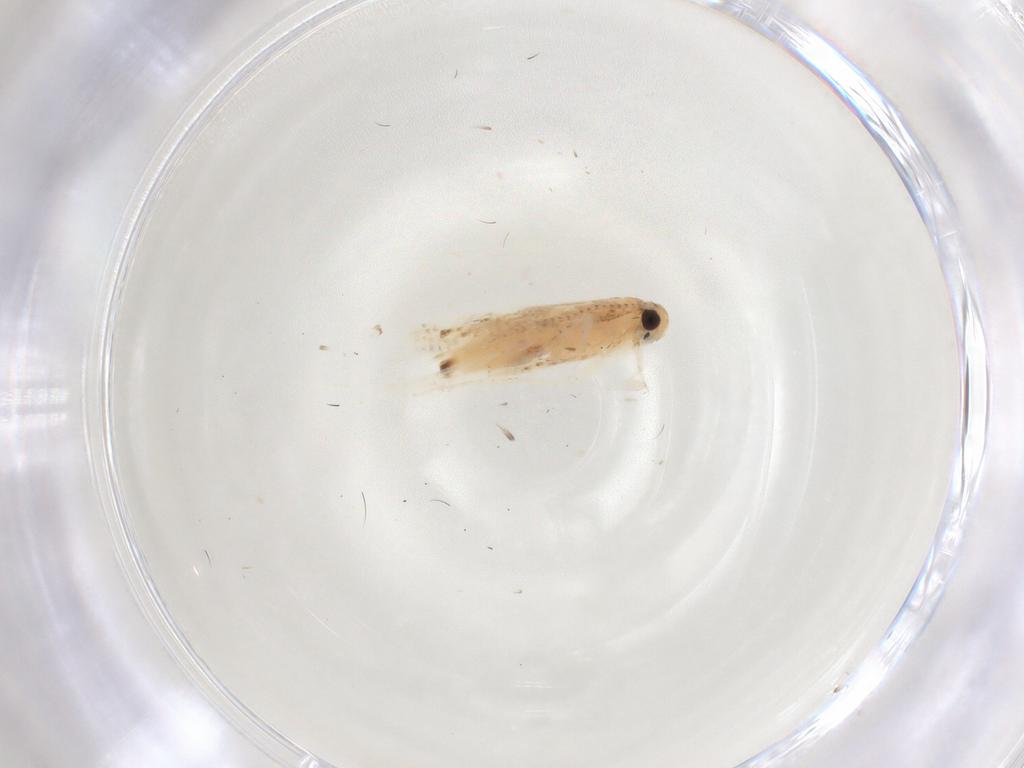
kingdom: Animalia
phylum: Arthropoda
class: Insecta
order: Lepidoptera
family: Gelechiidae
